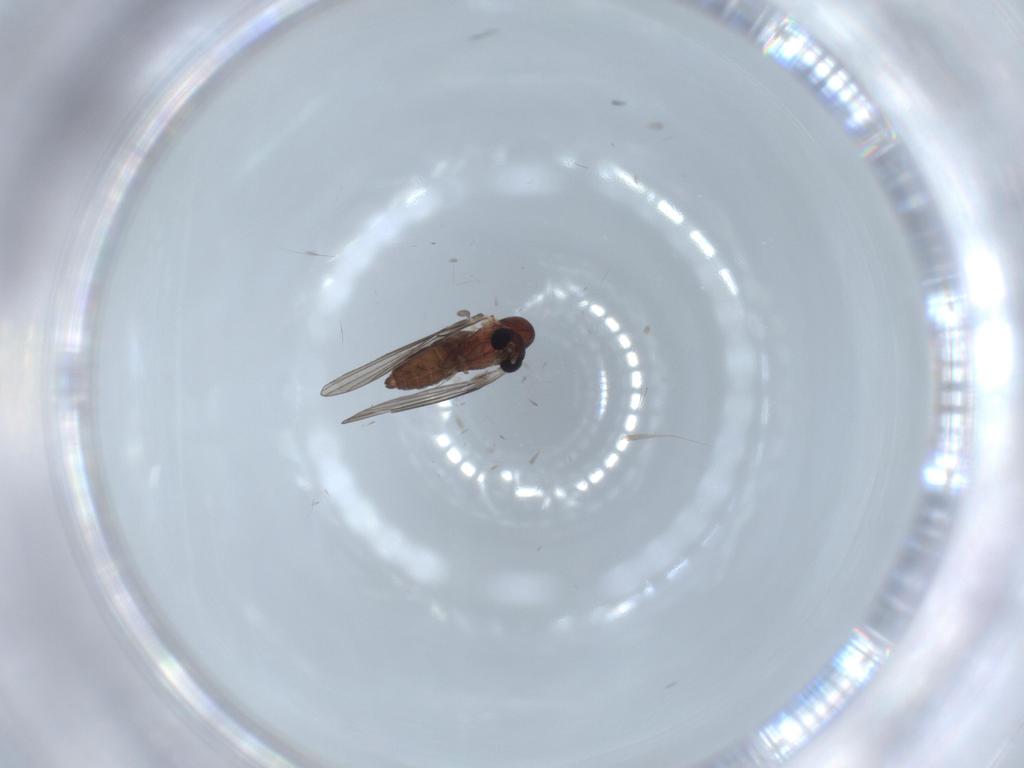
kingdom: Animalia
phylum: Arthropoda
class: Insecta
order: Diptera
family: Psychodidae
